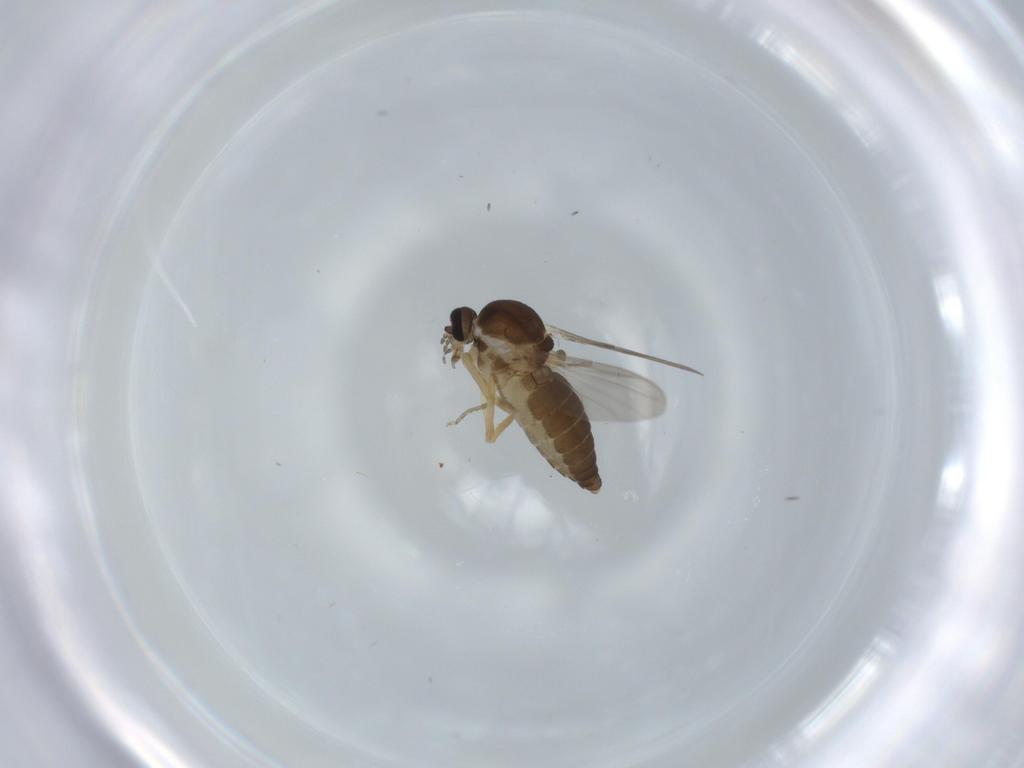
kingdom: Animalia
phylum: Arthropoda
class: Insecta
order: Diptera
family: Ceratopogonidae
